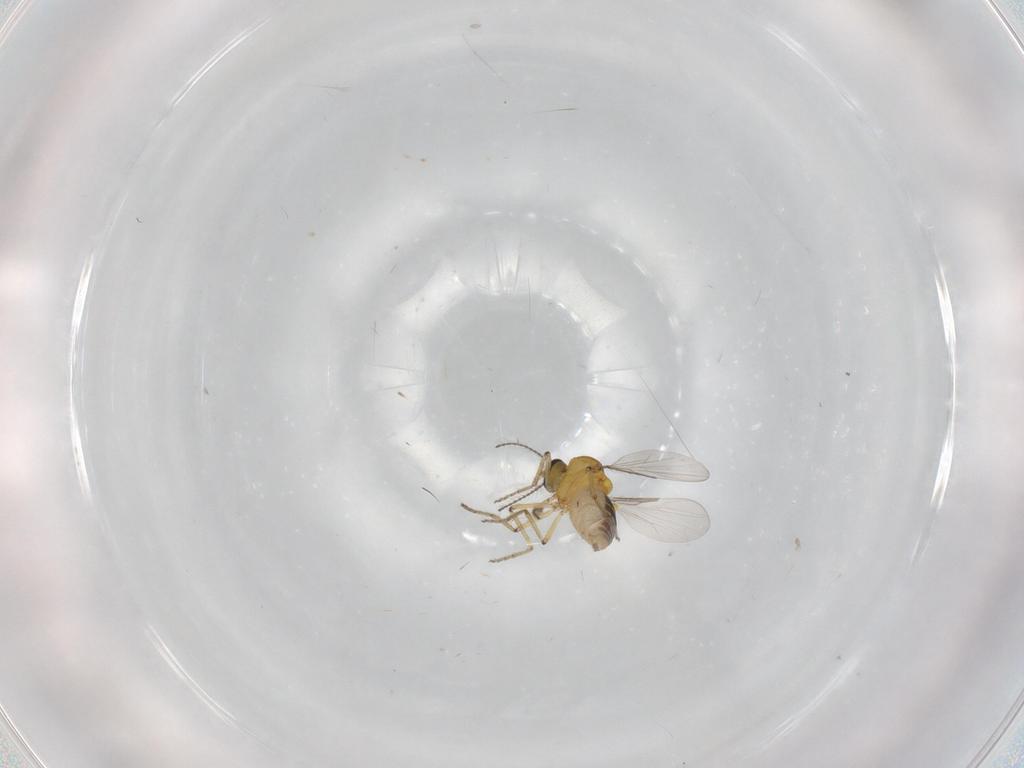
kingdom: Animalia
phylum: Arthropoda
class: Insecta
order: Diptera
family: Ceratopogonidae
